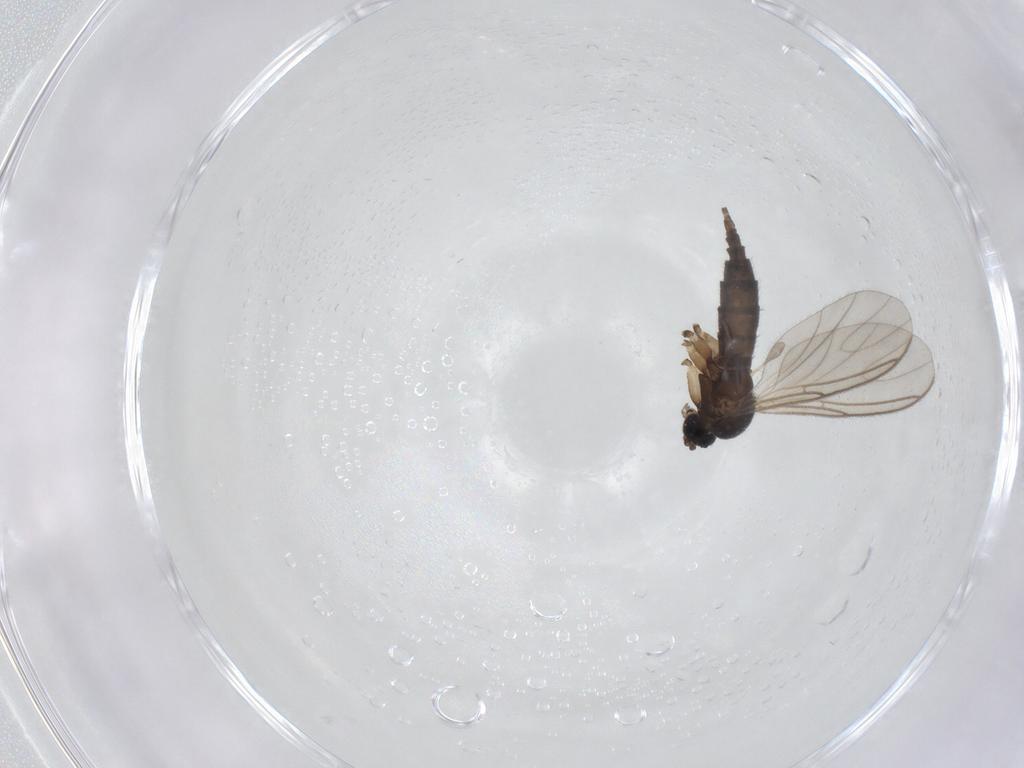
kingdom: Animalia
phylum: Arthropoda
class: Insecta
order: Diptera
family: Sciaridae
